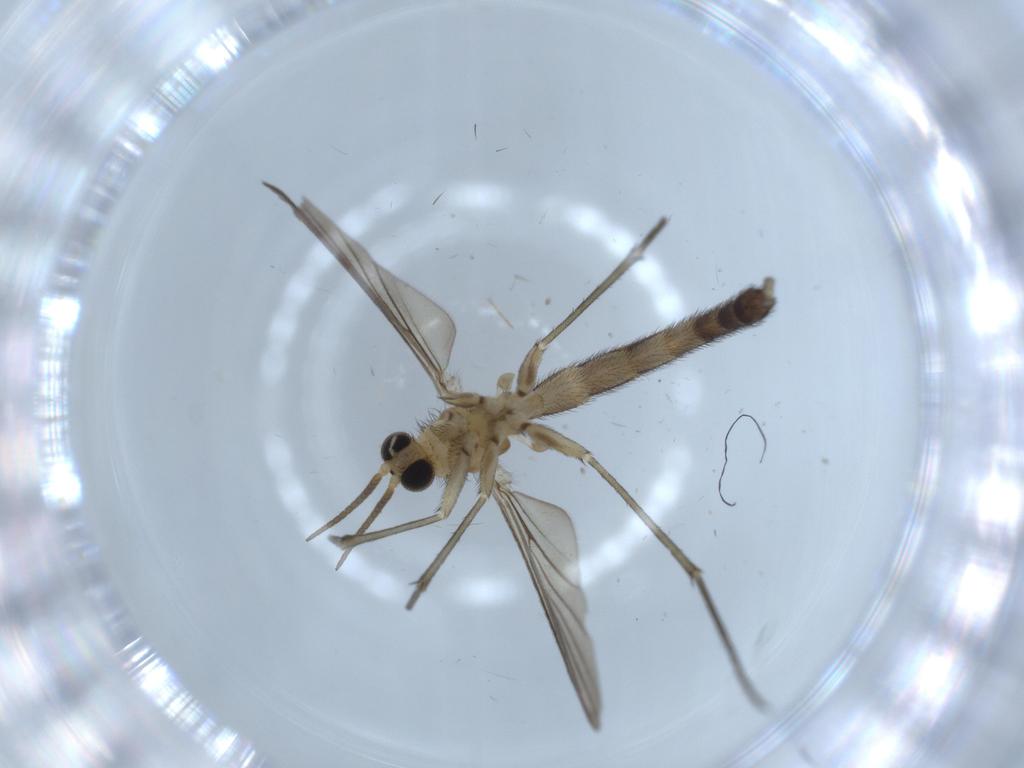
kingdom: Animalia
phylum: Arthropoda
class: Insecta
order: Diptera
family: Keroplatidae
